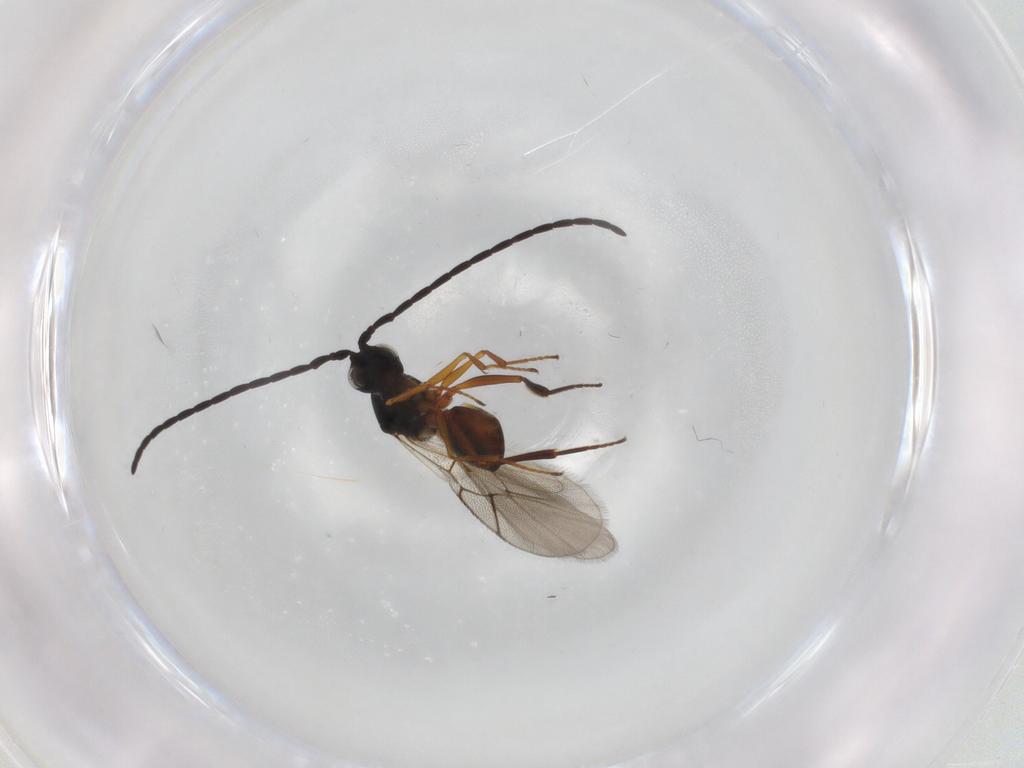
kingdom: Animalia
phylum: Arthropoda
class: Insecta
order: Hymenoptera
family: Figitidae
